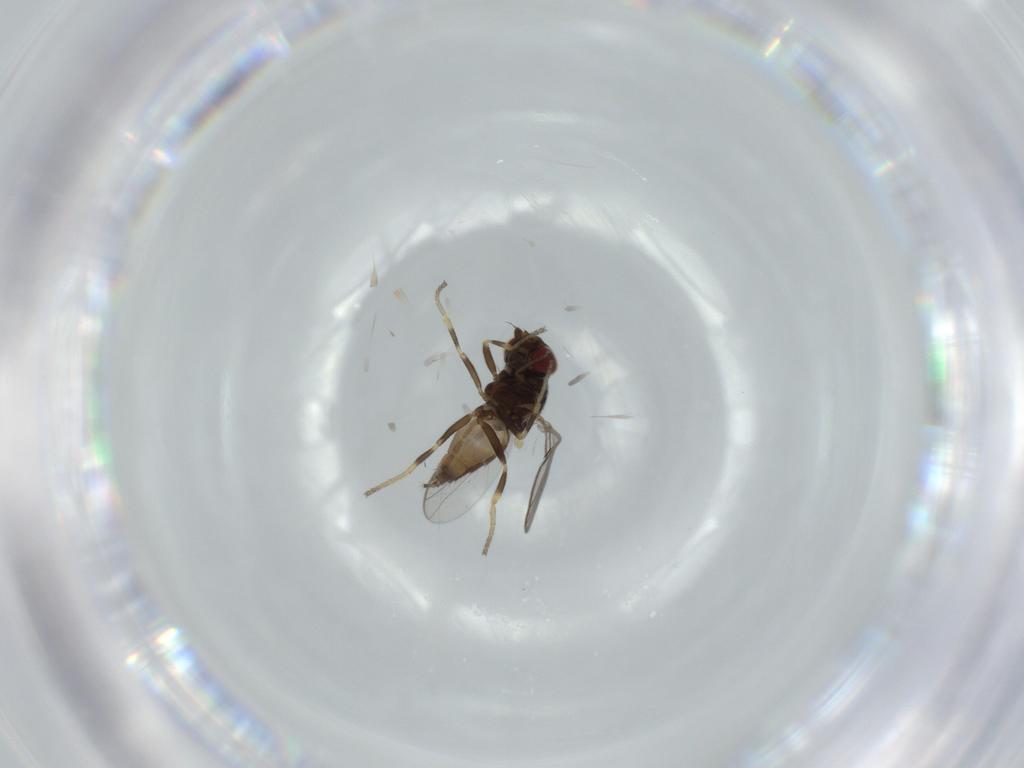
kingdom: Animalia
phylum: Arthropoda
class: Insecta
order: Diptera
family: Chloropidae
